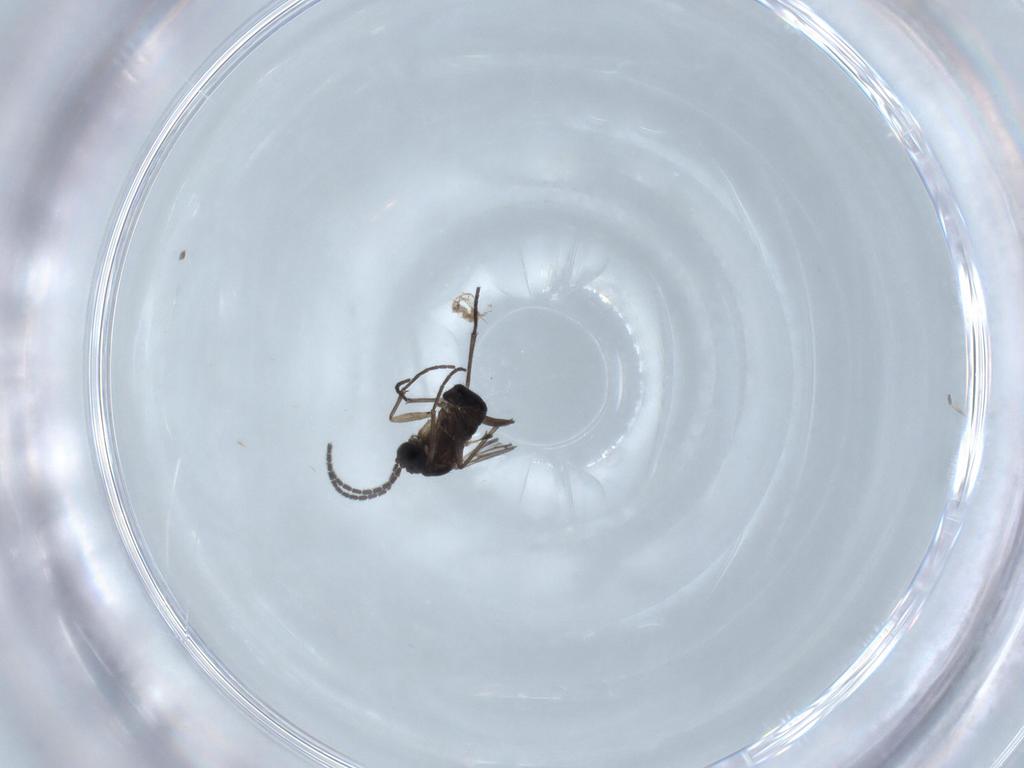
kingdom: Animalia
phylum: Arthropoda
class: Insecta
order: Diptera
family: Sciaridae
